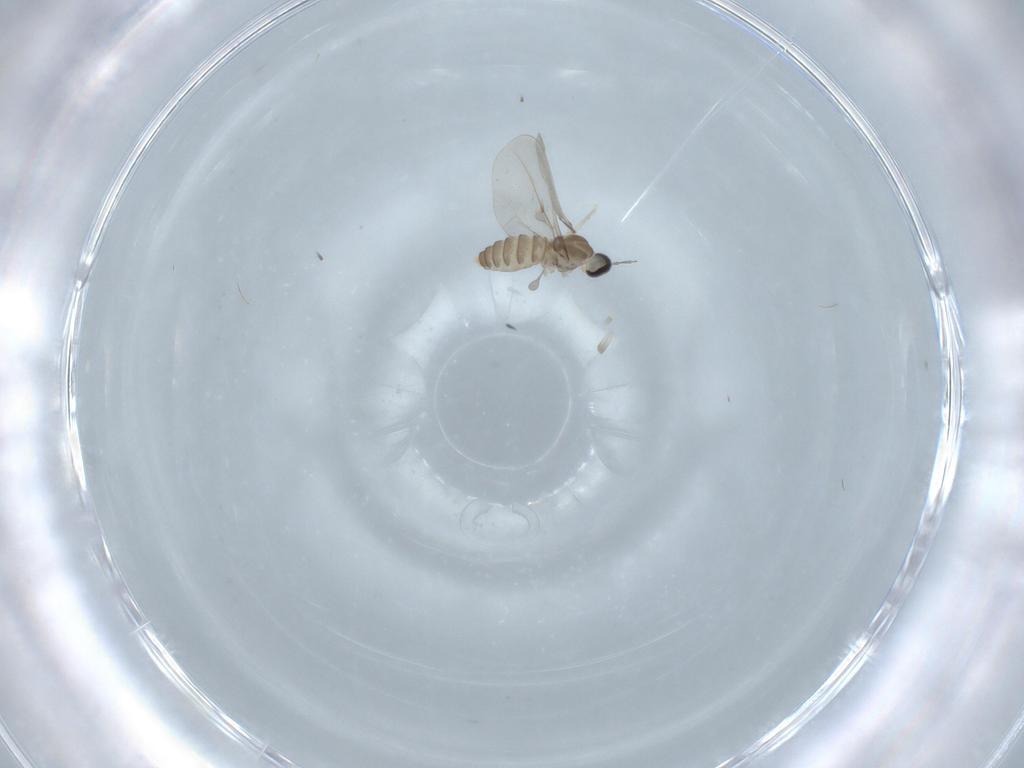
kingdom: Animalia
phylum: Arthropoda
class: Insecta
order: Diptera
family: Cecidomyiidae
